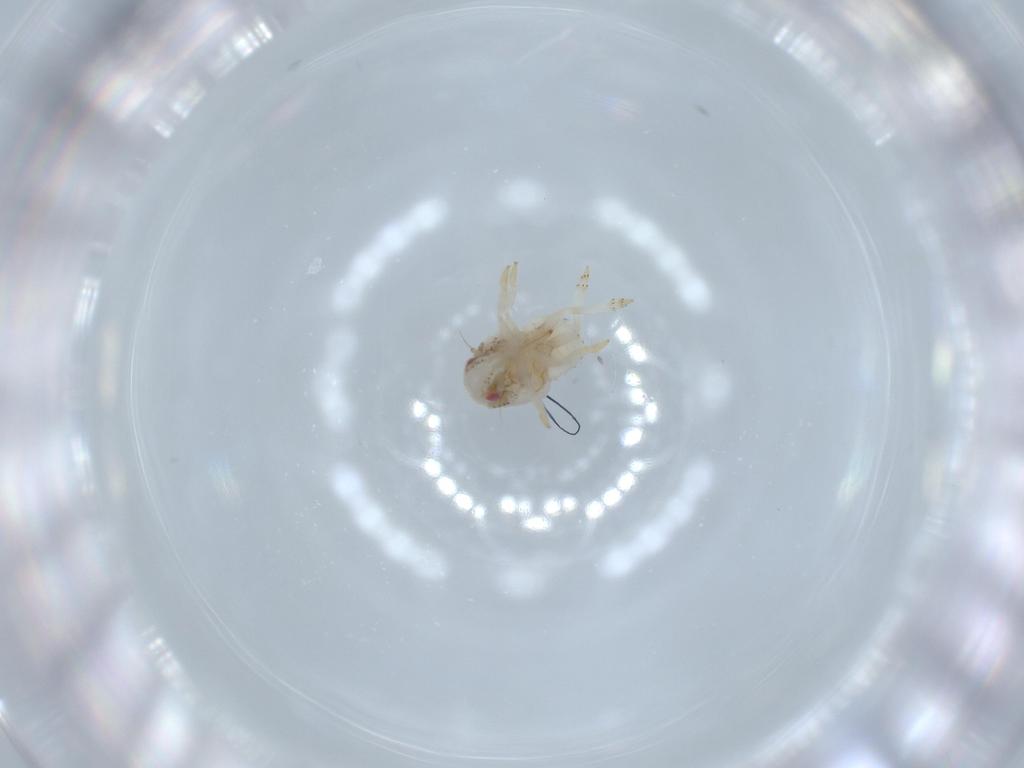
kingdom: Animalia
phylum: Arthropoda
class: Insecta
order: Hemiptera
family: Acanaloniidae
